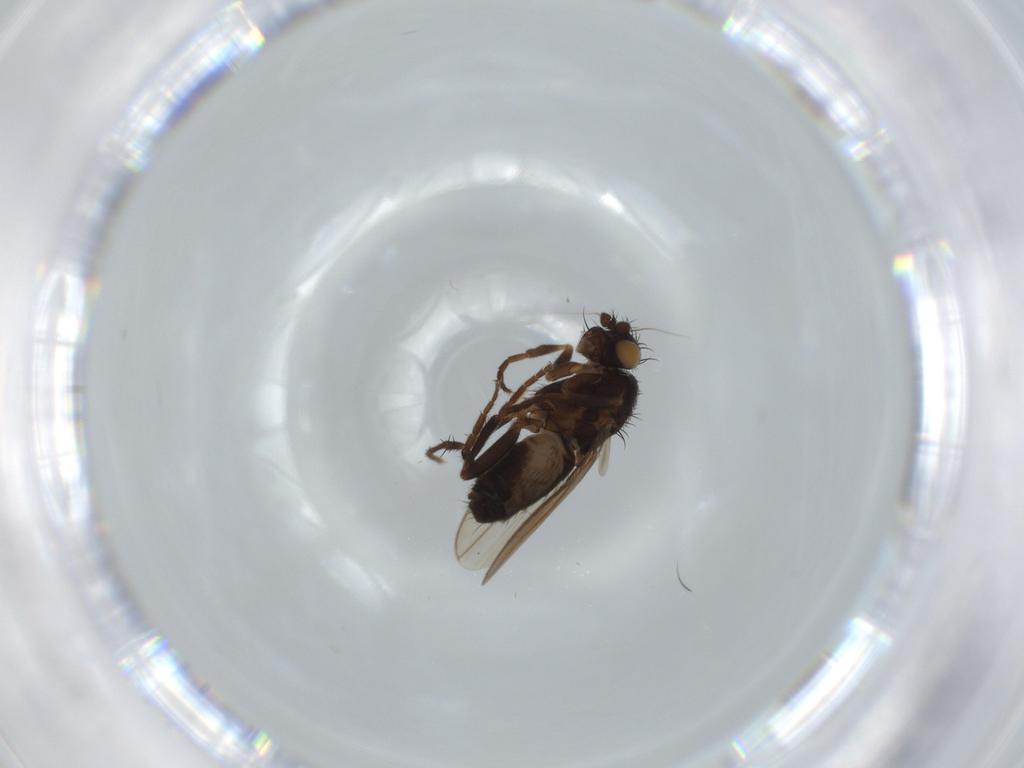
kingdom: Animalia
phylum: Arthropoda
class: Insecta
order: Diptera
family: Sphaeroceridae
